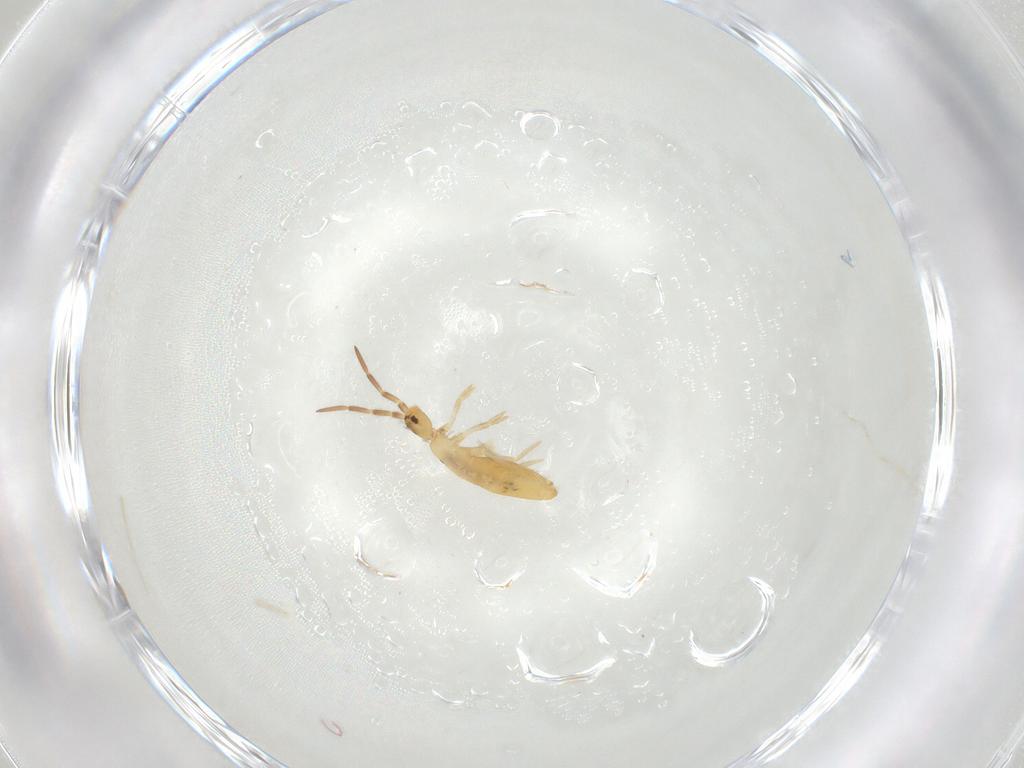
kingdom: Animalia
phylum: Arthropoda
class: Collembola
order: Entomobryomorpha
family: Entomobryidae
